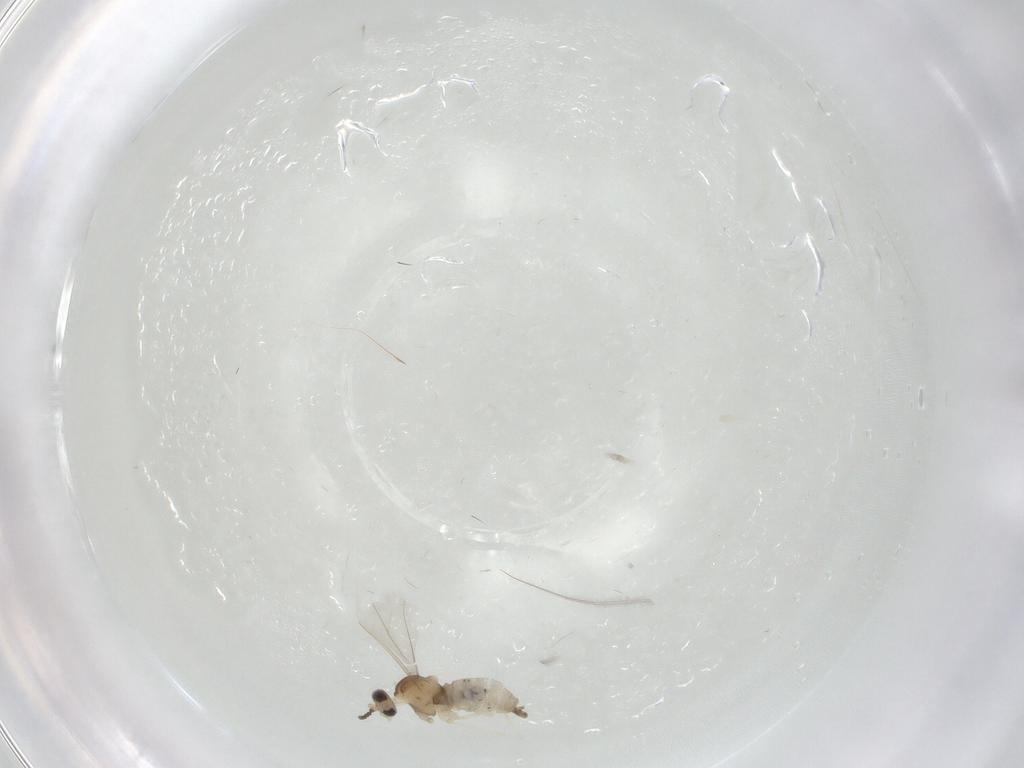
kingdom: Animalia
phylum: Arthropoda
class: Insecta
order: Diptera
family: Cecidomyiidae
